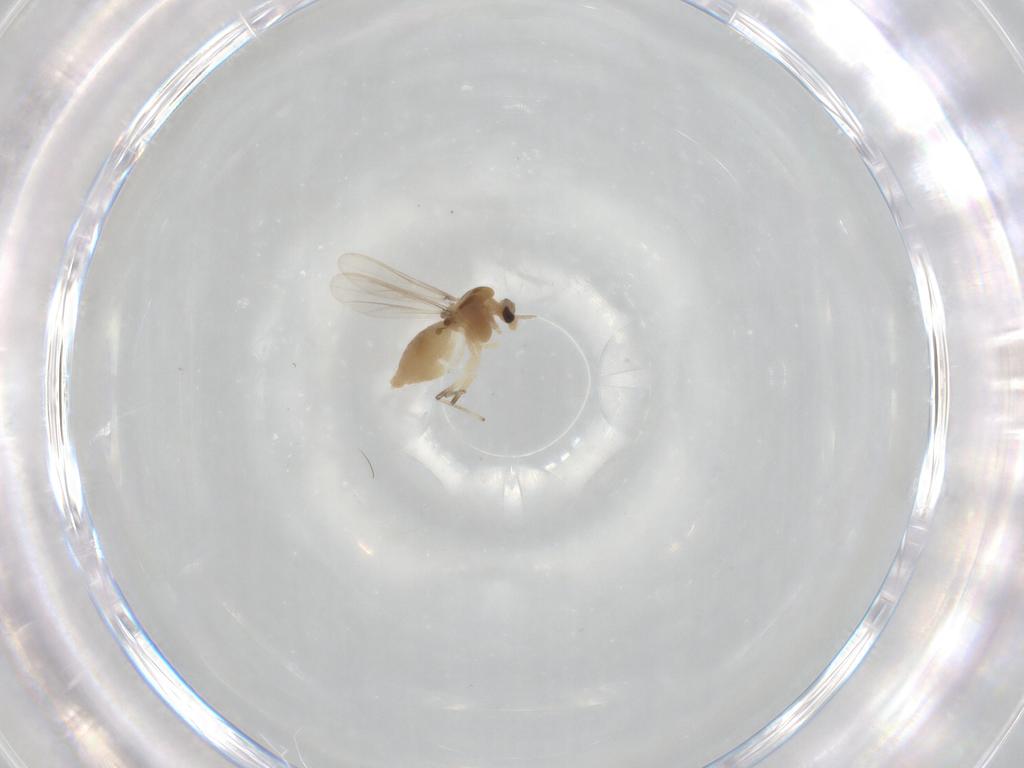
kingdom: Animalia
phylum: Arthropoda
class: Insecta
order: Diptera
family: Chironomidae
